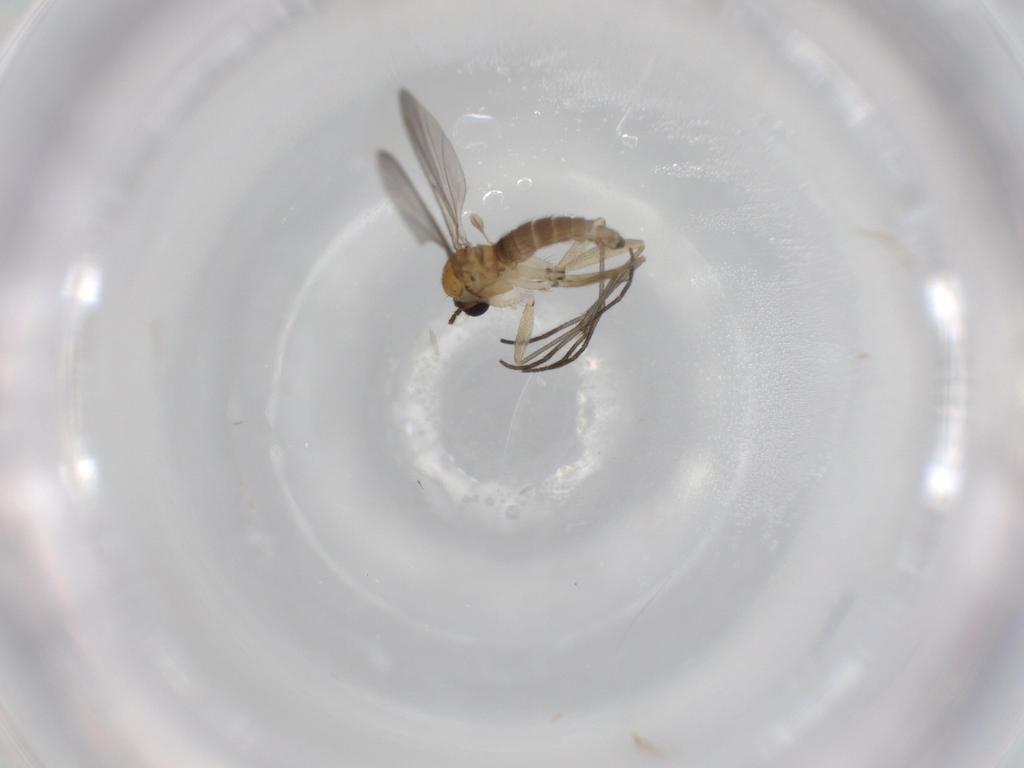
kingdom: Animalia
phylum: Arthropoda
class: Insecta
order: Diptera
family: Sciaridae
